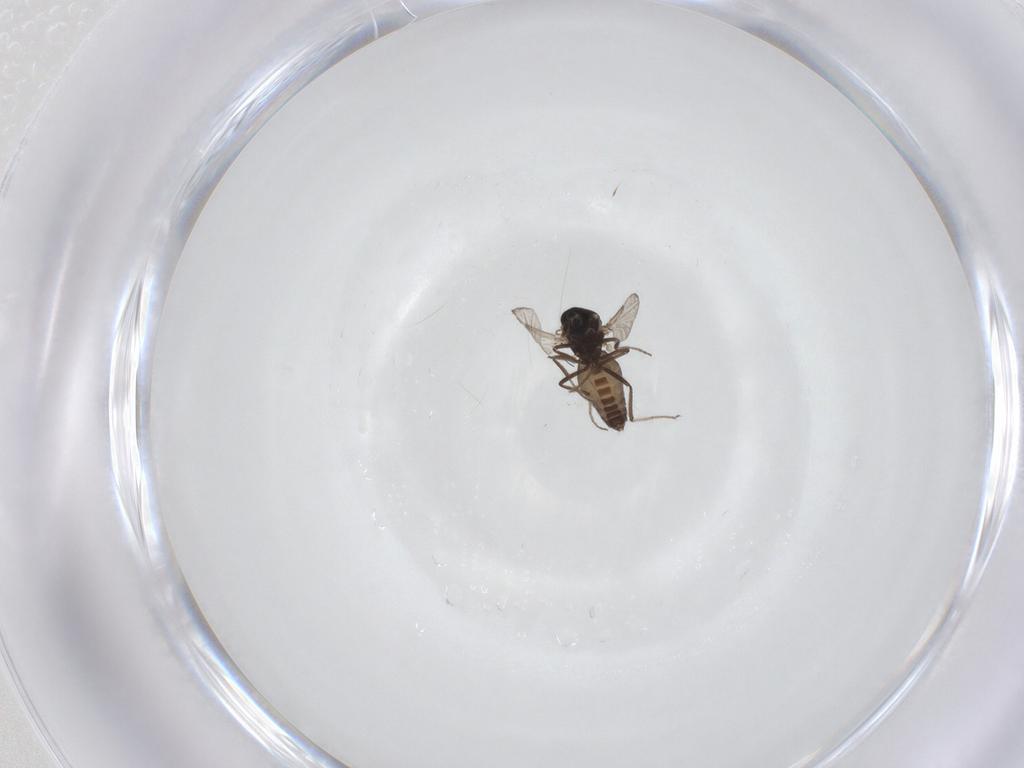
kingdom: Animalia
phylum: Arthropoda
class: Insecta
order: Diptera
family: Ceratopogonidae
